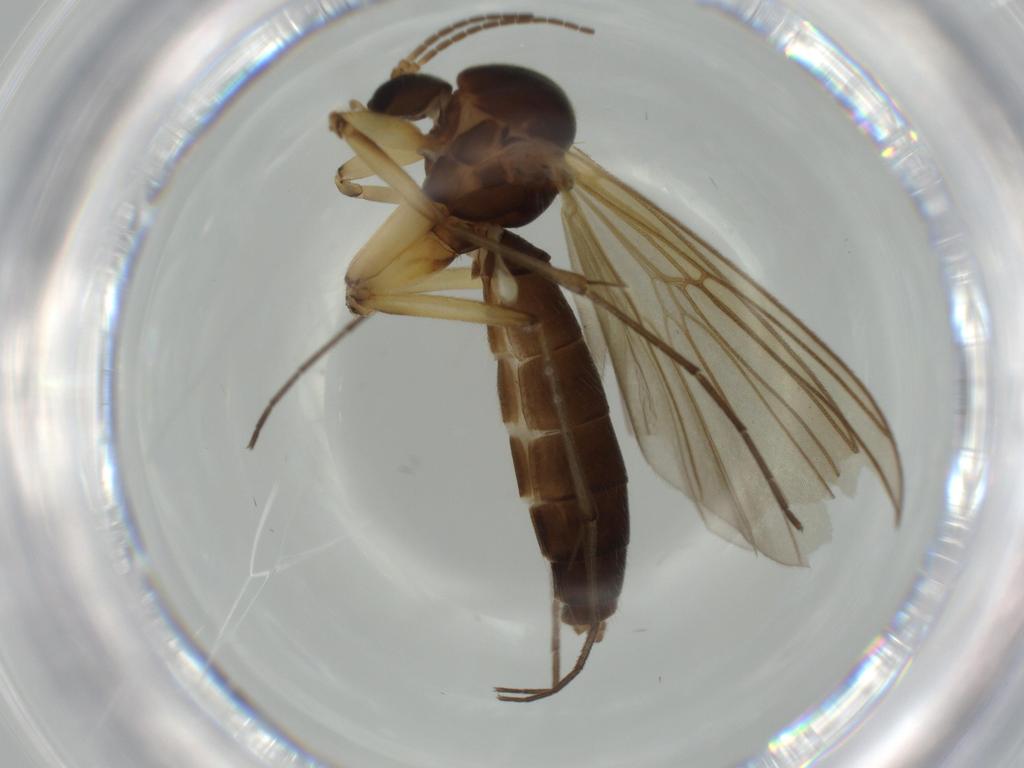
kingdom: Animalia
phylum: Arthropoda
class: Insecta
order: Diptera
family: Mycetophilidae
